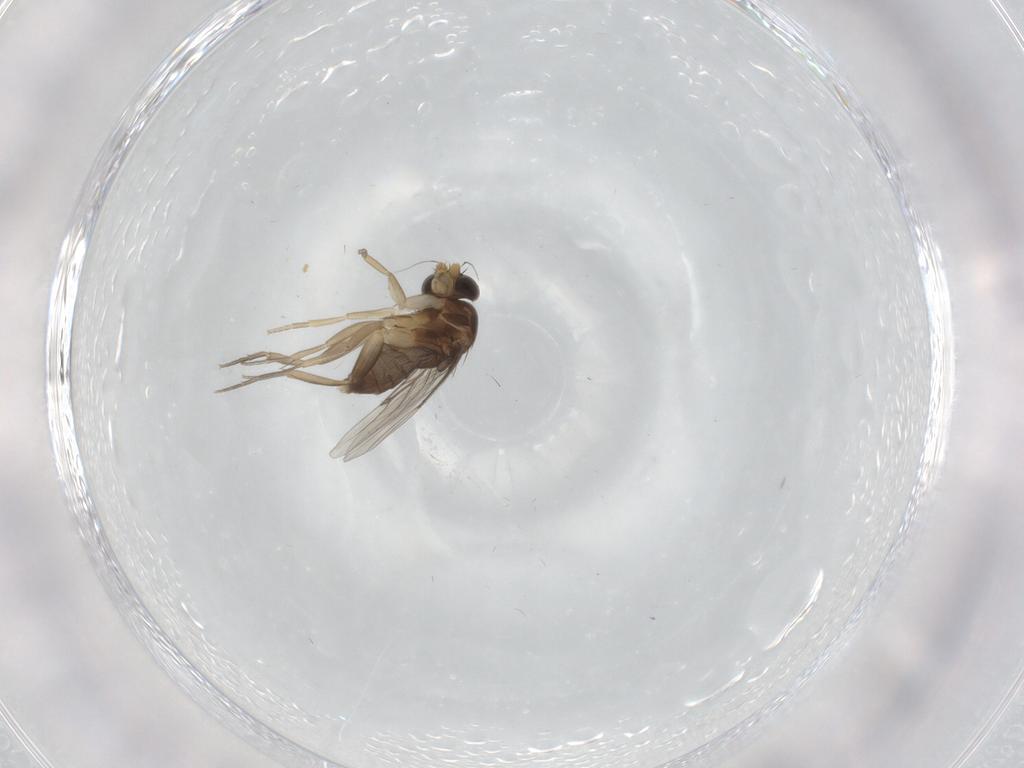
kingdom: Animalia
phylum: Arthropoda
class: Insecta
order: Diptera
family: Phoridae
